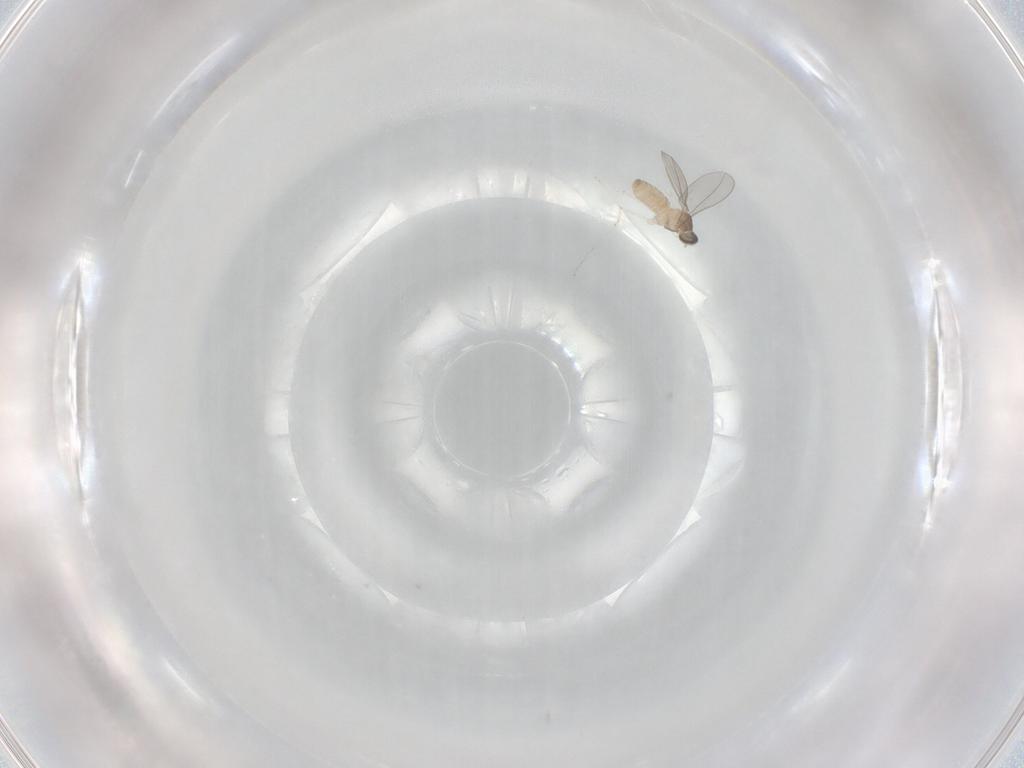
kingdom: Animalia
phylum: Arthropoda
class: Insecta
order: Diptera
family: Cecidomyiidae
